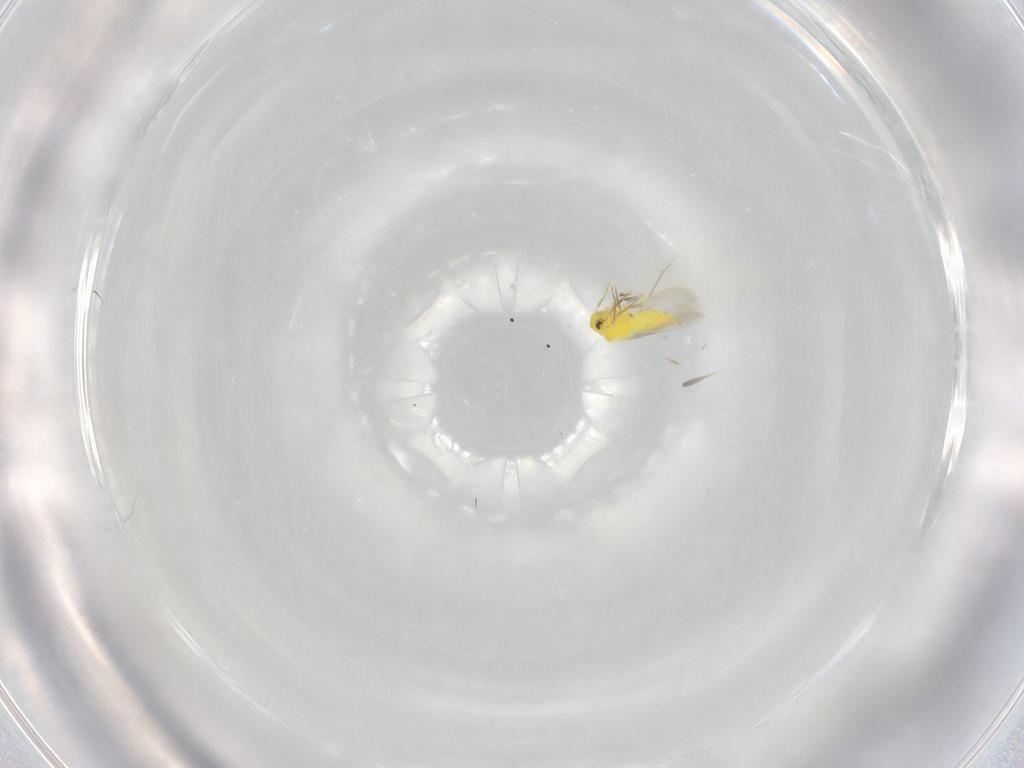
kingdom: Animalia
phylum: Arthropoda
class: Insecta
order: Hemiptera
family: Aleyrodidae
